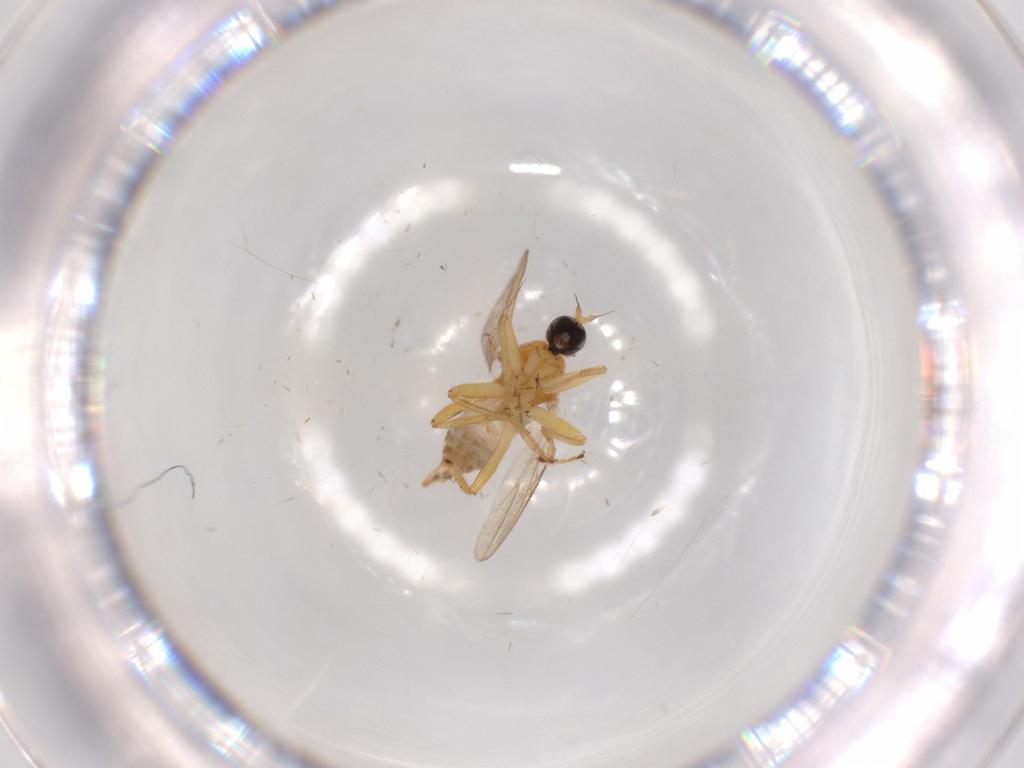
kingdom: Animalia
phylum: Arthropoda
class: Insecta
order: Diptera
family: Hybotidae
